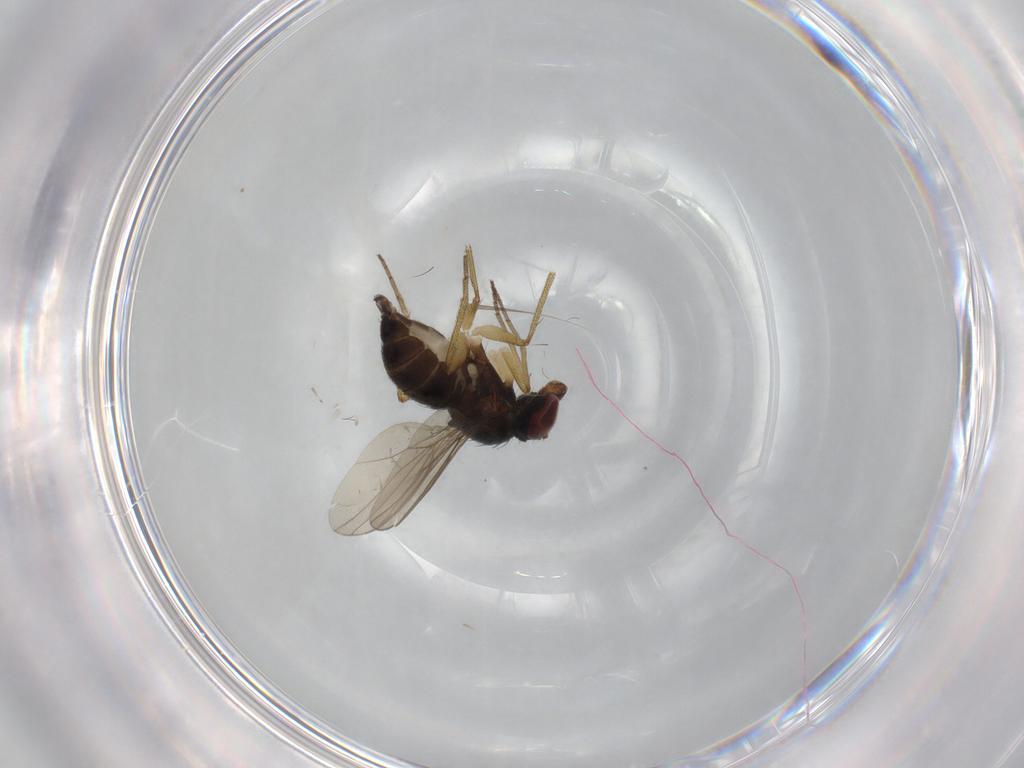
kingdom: Animalia
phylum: Arthropoda
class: Insecta
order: Diptera
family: Dolichopodidae
